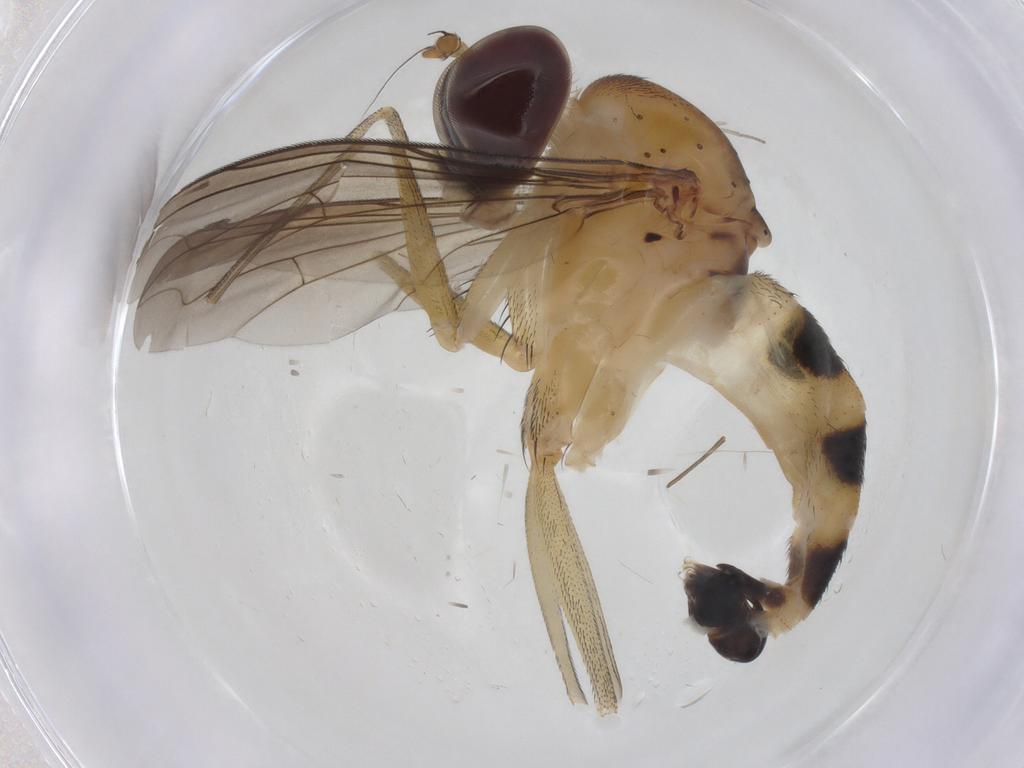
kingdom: Animalia
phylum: Arthropoda
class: Insecta
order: Diptera
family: Dolichopodidae
